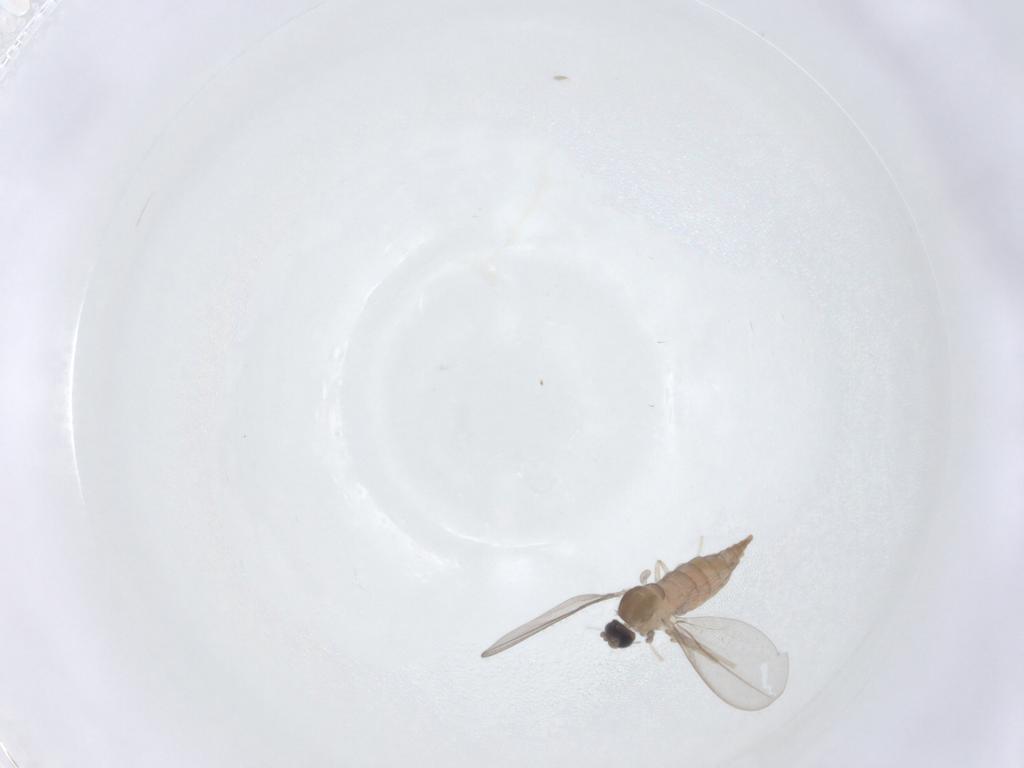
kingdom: Animalia
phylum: Arthropoda
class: Insecta
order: Diptera
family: Cecidomyiidae
